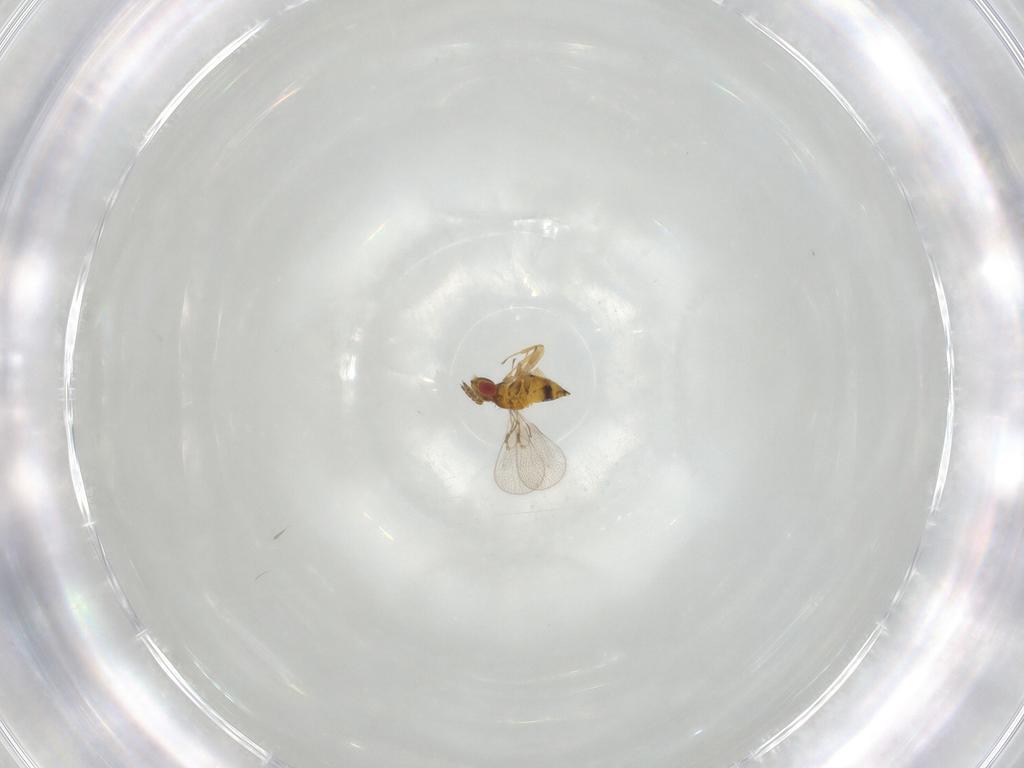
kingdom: Animalia
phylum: Arthropoda
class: Insecta
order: Hymenoptera
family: Trichogrammatidae
